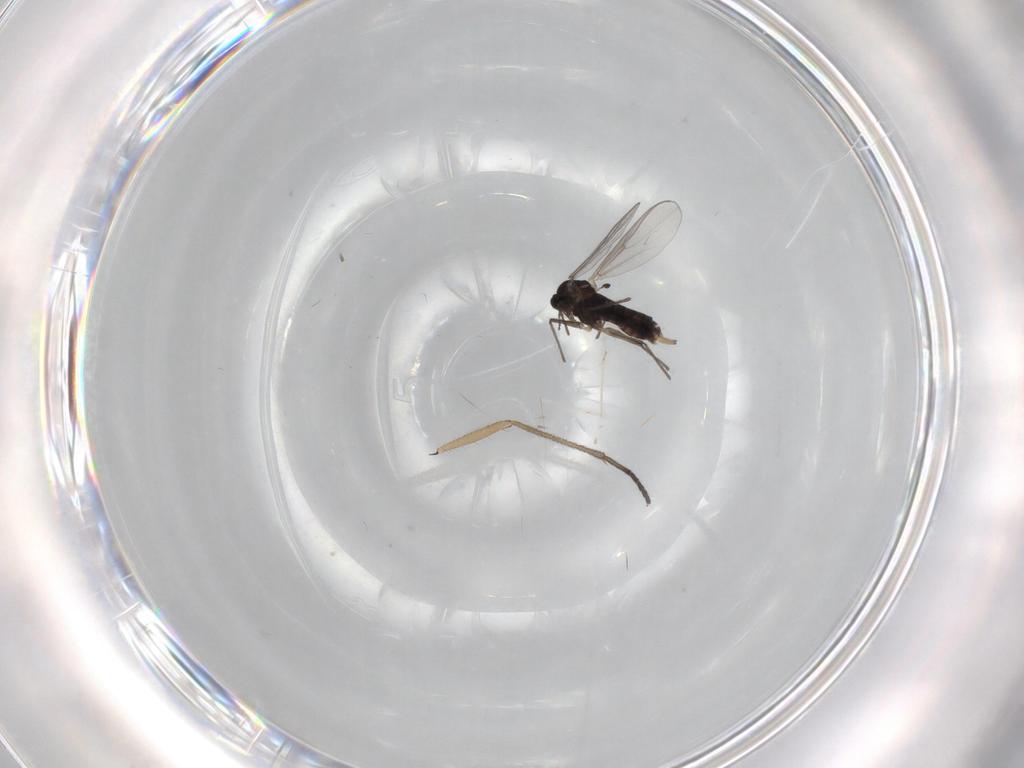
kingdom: Animalia
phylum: Arthropoda
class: Insecta
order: Diptera
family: Chironomidae
